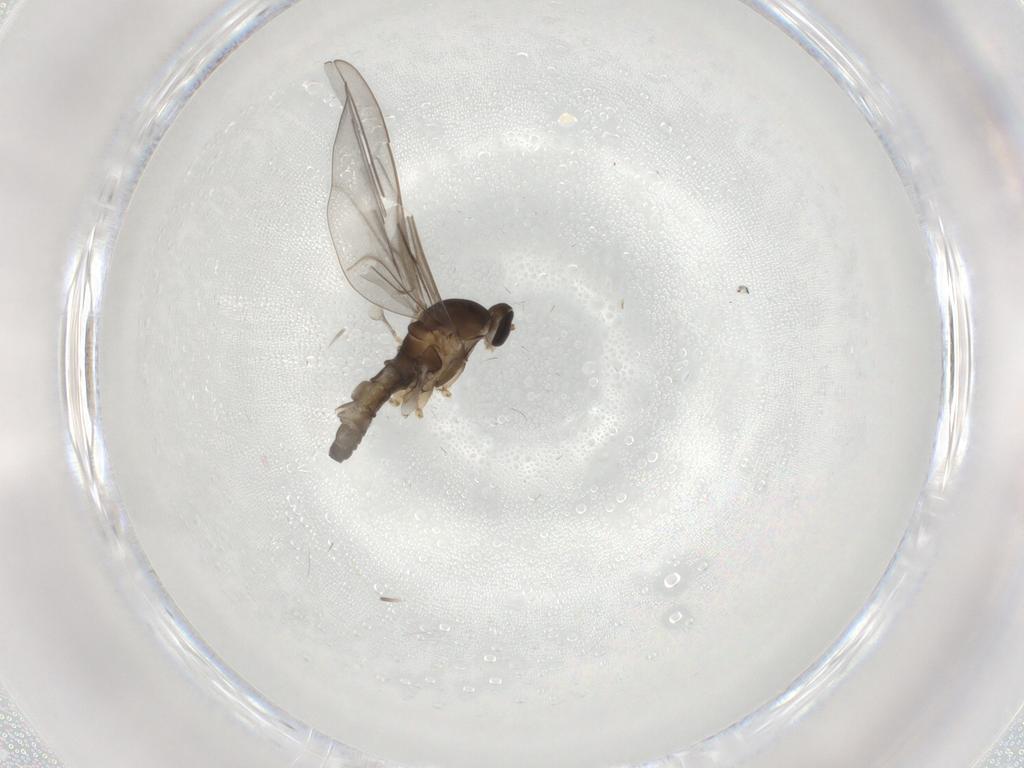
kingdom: Animalia
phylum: Arthropoda
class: Insecta
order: Diptera
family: Cecidomyiidae
